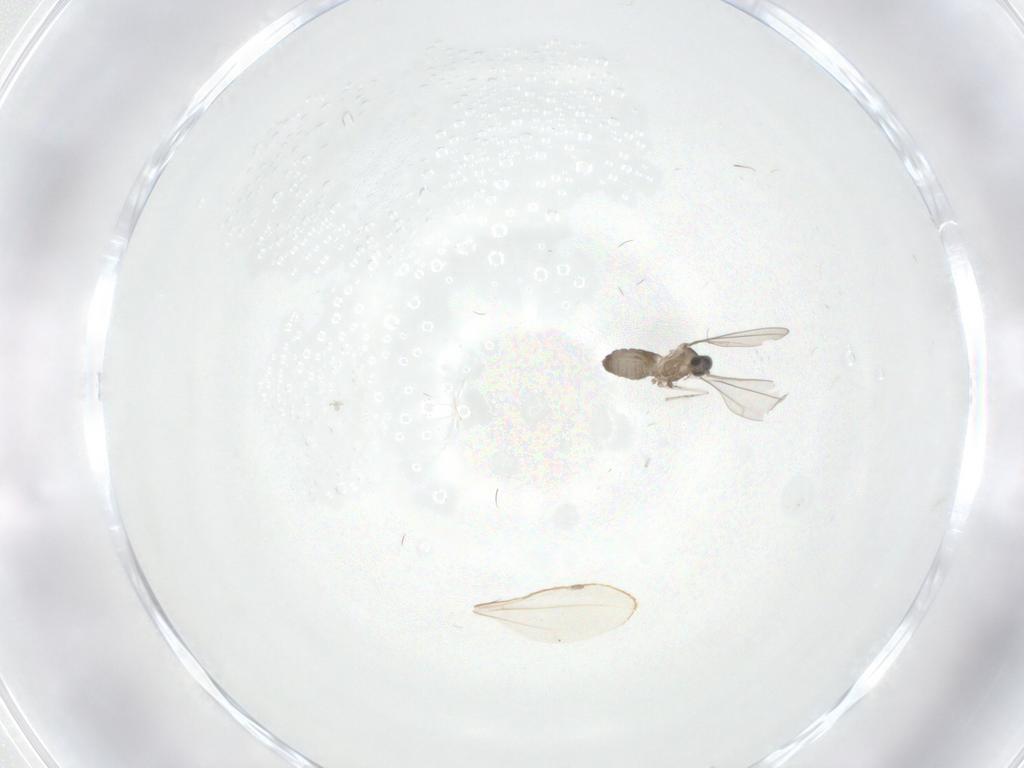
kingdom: Animalia
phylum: Arthropoda
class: Insecta
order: Diptera
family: Cecidomyiidae
